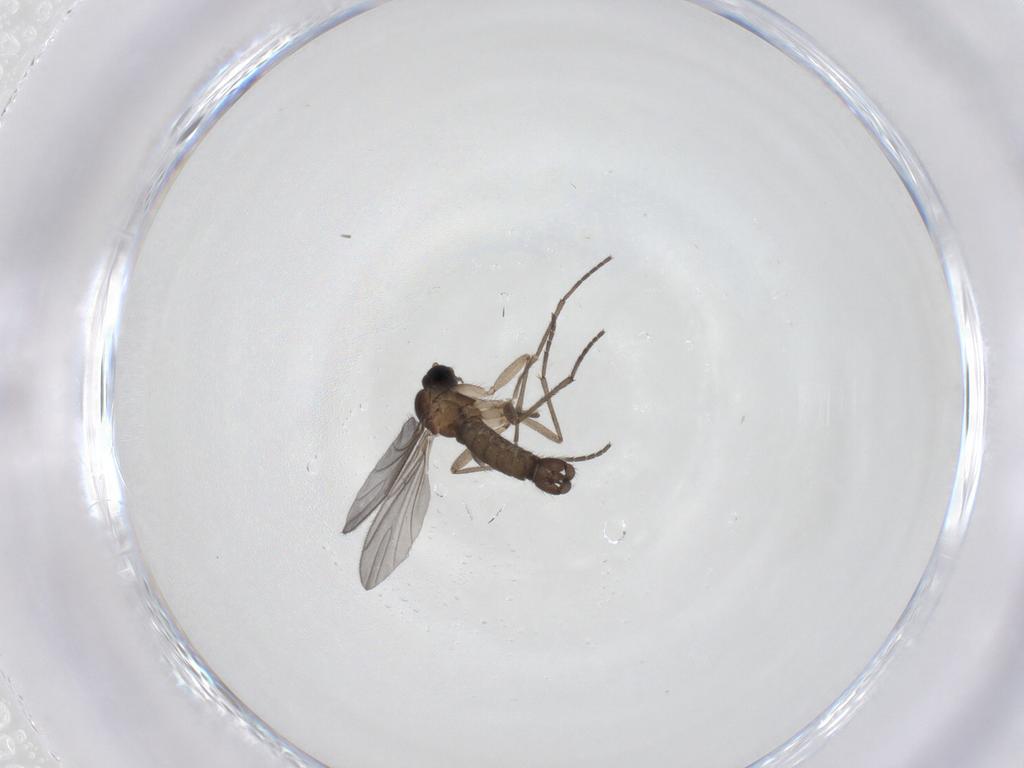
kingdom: Animalia
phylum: Arthropoda
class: Insecta
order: Diptera
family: Sciaridae
